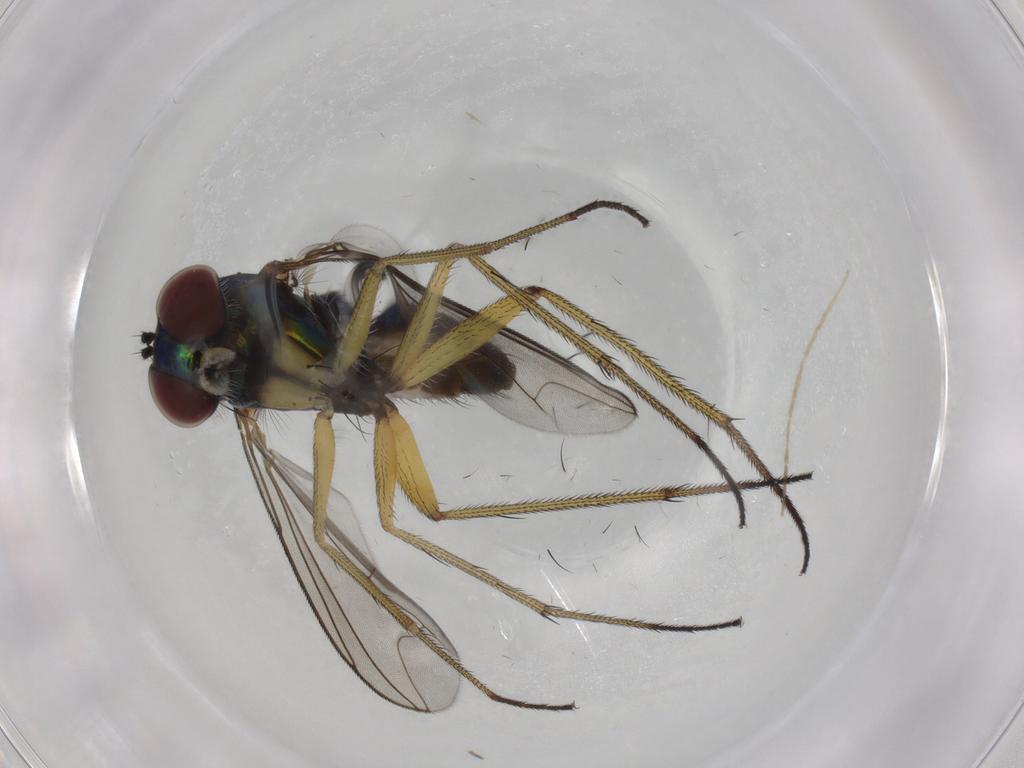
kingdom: Animalia
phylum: Arthropoda
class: Insecta
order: Diptera
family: Dolichopodidae
